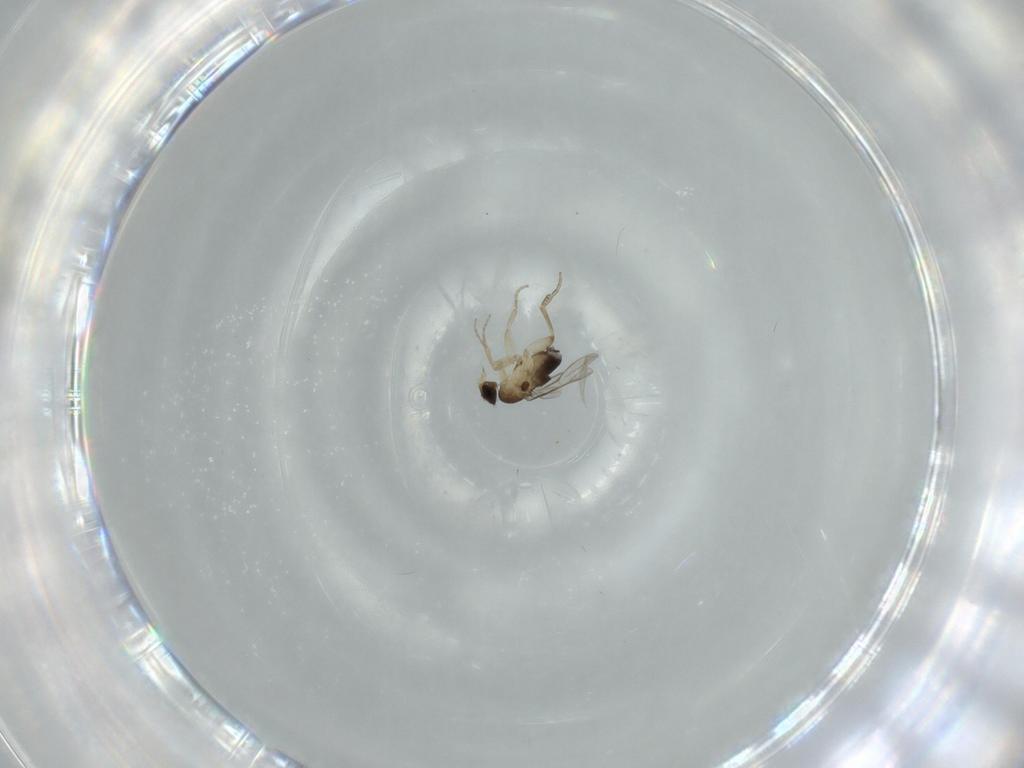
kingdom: Animalia
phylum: Arthropoda
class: Insecta
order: Diptera
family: Phoridae
